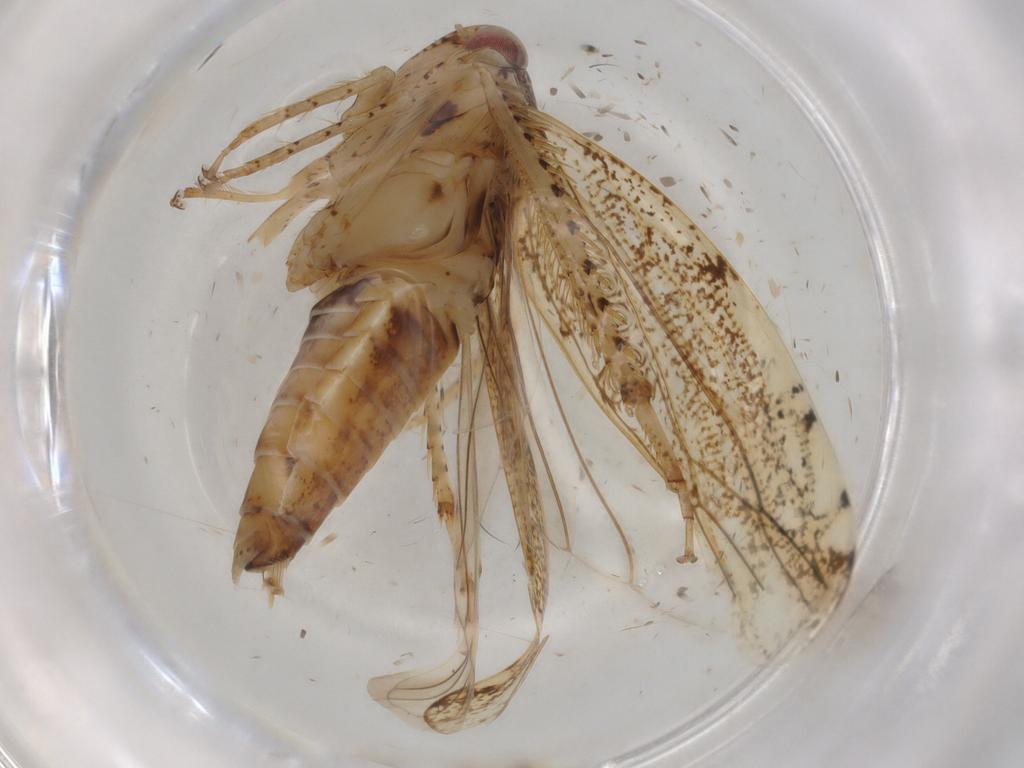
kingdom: Animalia
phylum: Arthropoda
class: Insecta
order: Hemiptera
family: Cicadellidae
